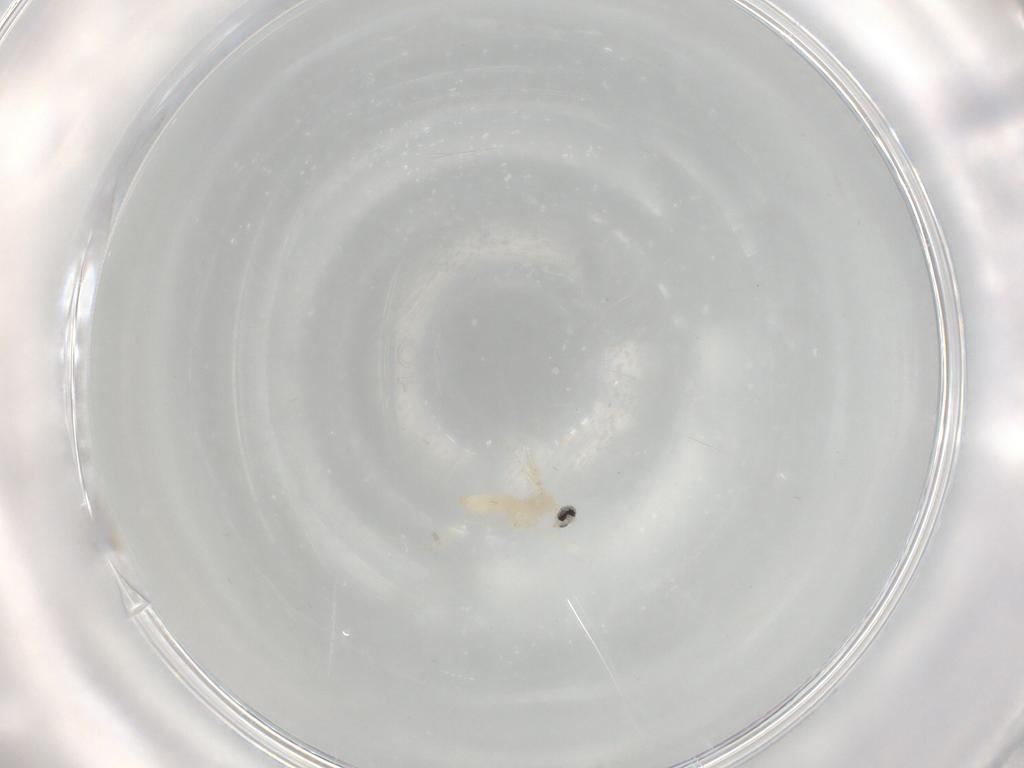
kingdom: Animalia
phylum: Arthropoda
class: Insecta
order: Diptera
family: Cecidomyiidae
